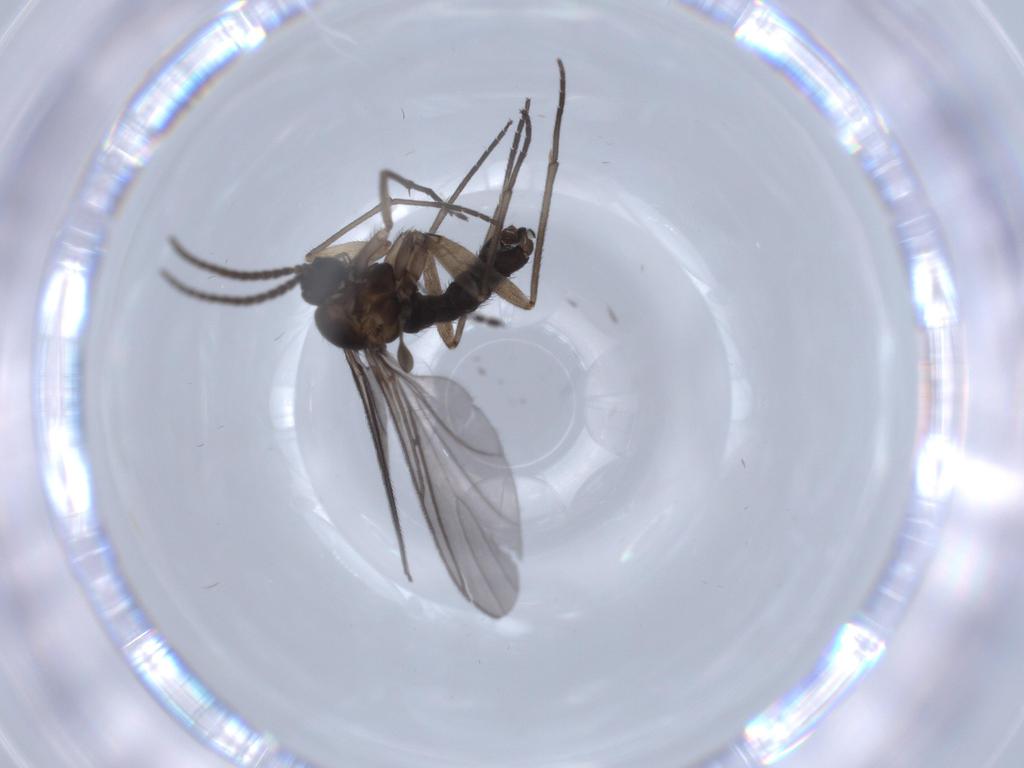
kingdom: Animalia
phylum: Arthropoda
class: Insecta
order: Diptera
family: Sciaridae
